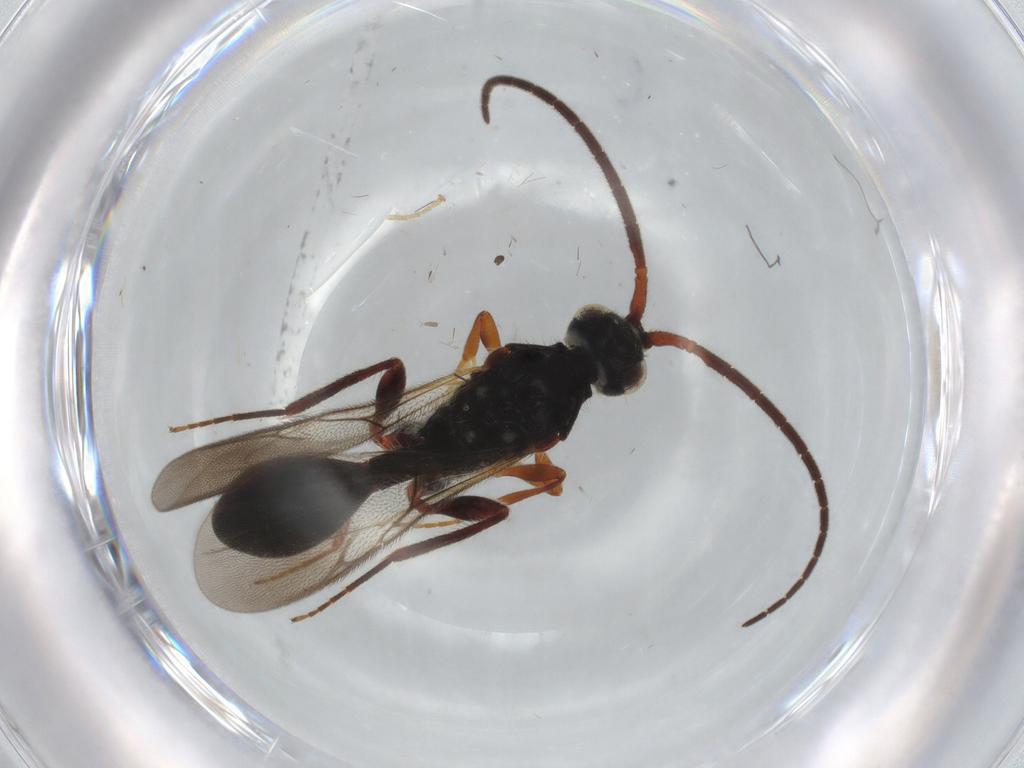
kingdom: Animalia
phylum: Arthropoda
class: Insecta
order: Hymenoptera
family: Diapriidae
